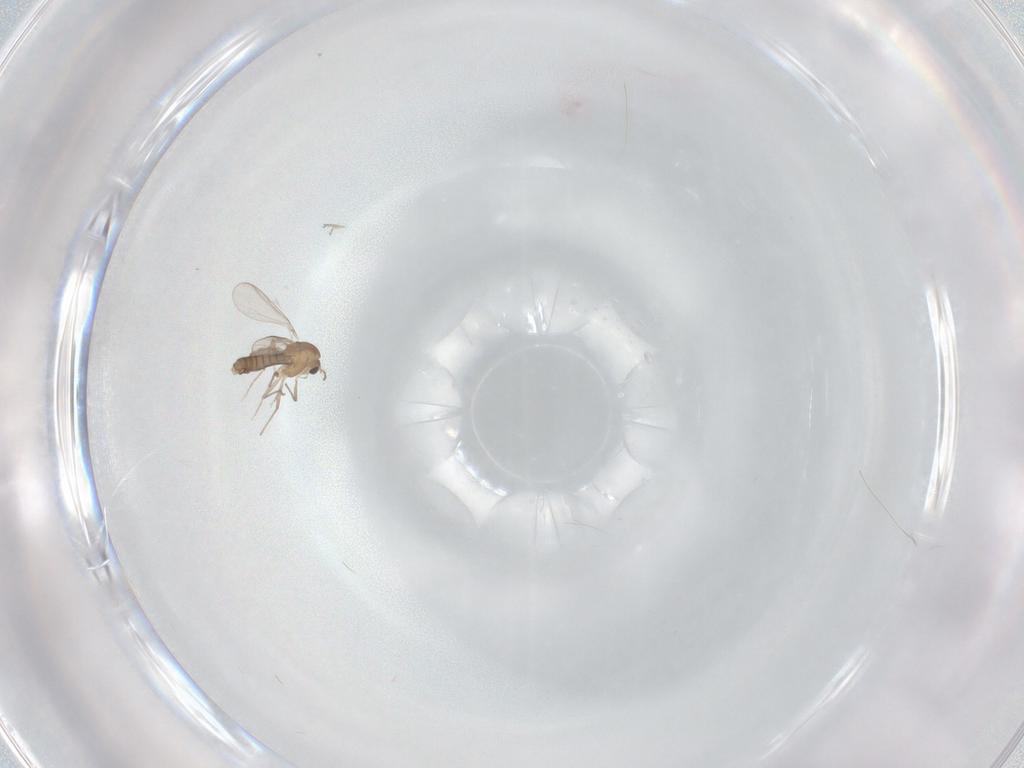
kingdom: Animalia
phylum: Arthropoda
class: Insecta
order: Diptera
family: Chironomidae
